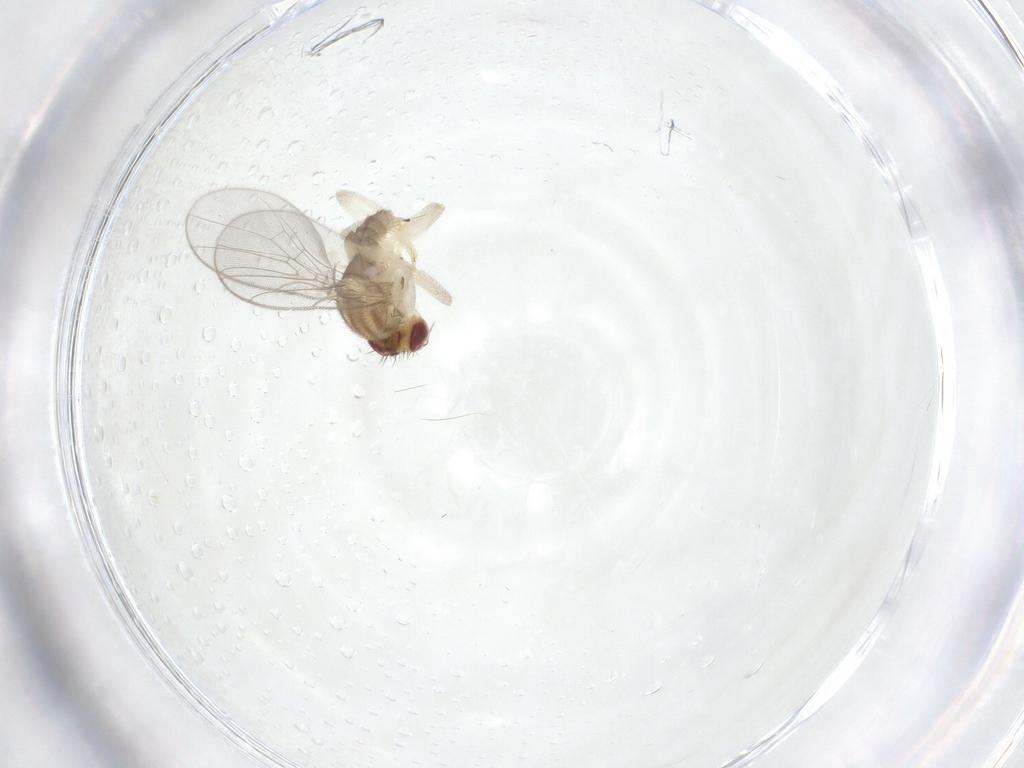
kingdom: Animalia
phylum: Arthropoda
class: Insecta
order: Diptera
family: Chloropidae
